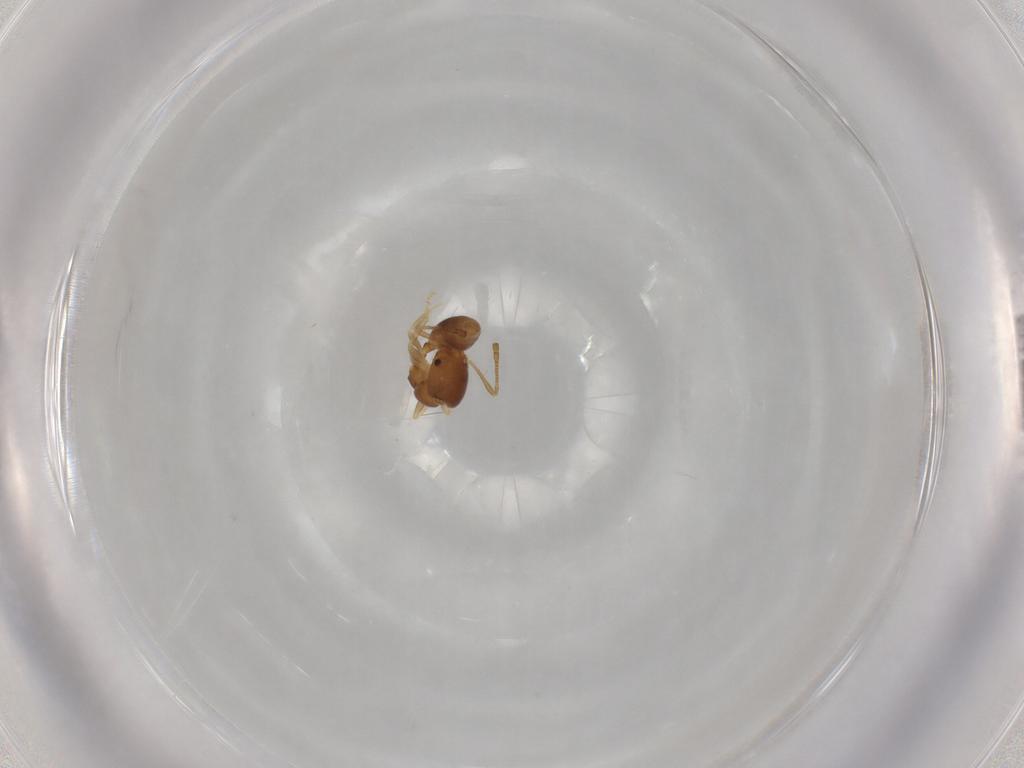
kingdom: Animalia
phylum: Arthropoda
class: Insecta
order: Hymenoptera
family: Formicidae
